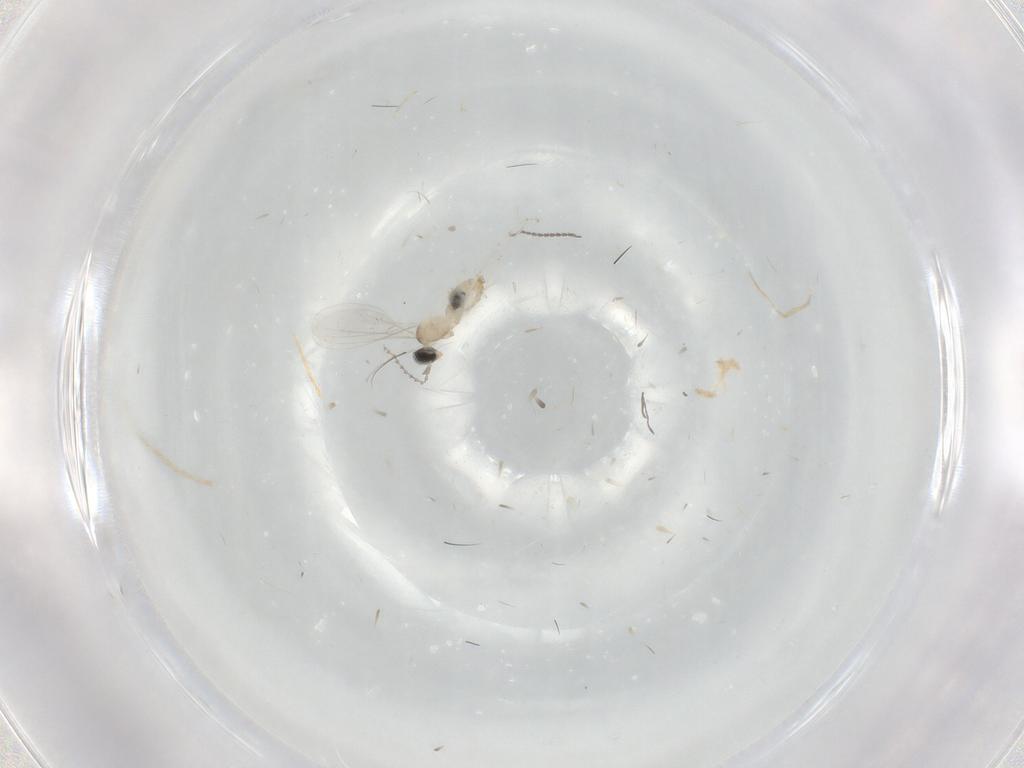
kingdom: Animalia
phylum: Arthropoda
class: Insecta
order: Diptera
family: Cecidomyiidae
